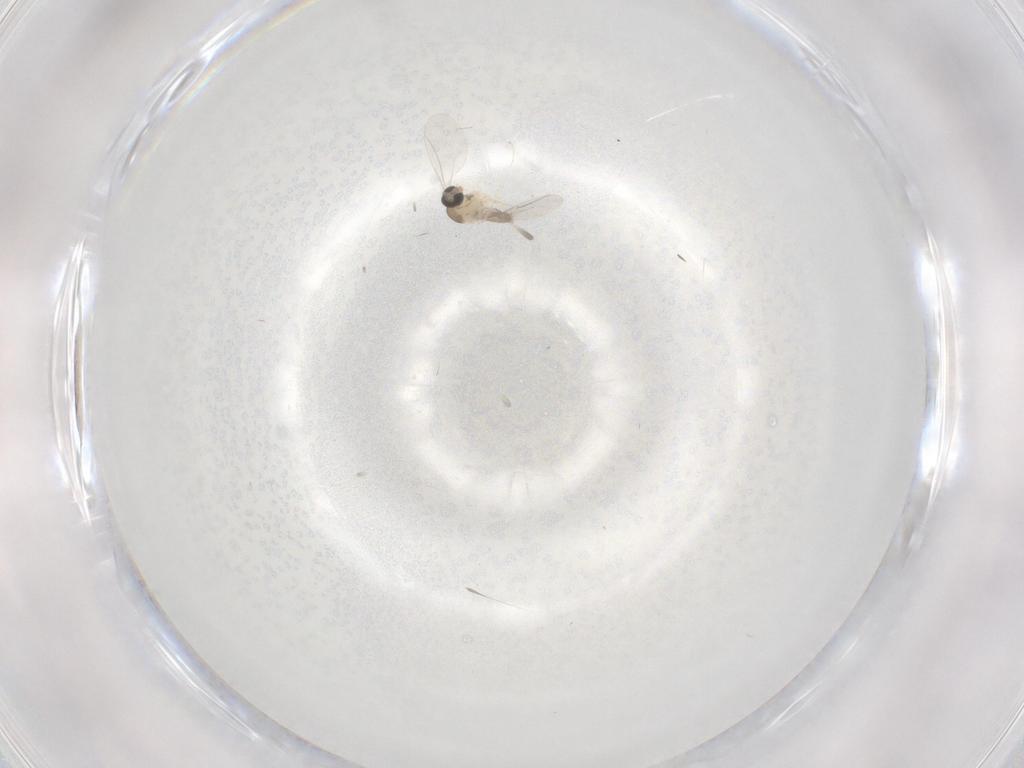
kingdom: Animalia
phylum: Arthropoda
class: Insecta
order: Diptera
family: Cecidomyiidae
